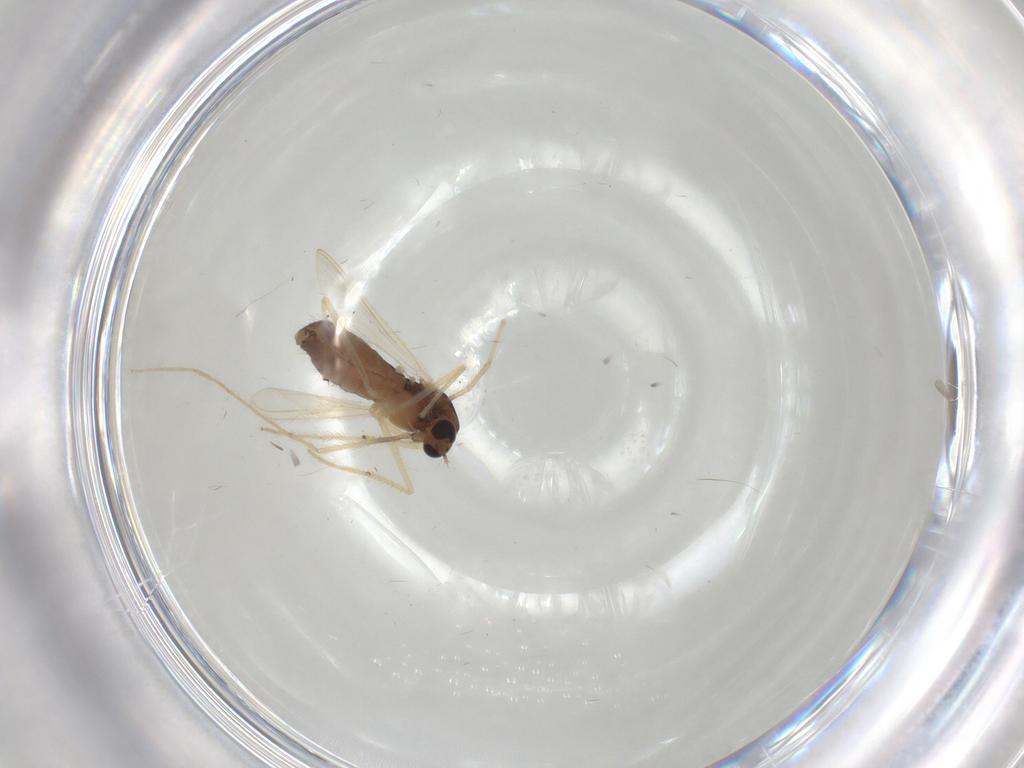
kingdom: Animalia
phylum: Arthropoda
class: Insecta
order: Diptera
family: Chironomidae
